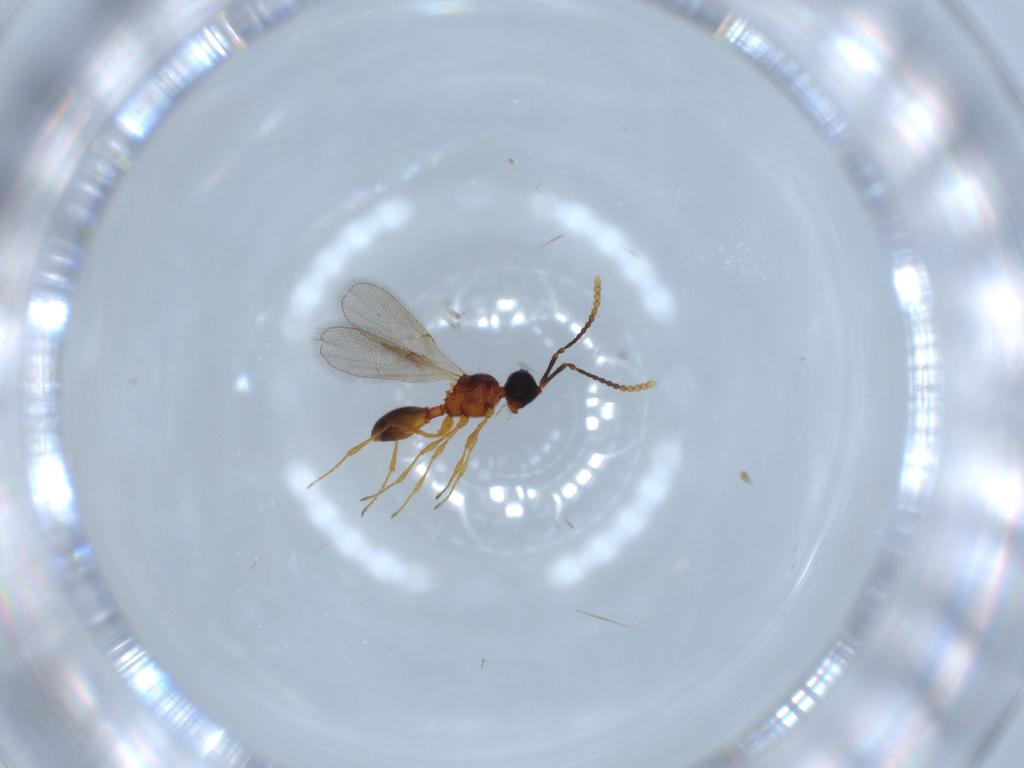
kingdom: Animalia
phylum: Arthropoda
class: Insecta
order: Hymenoptera
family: Diapriidae
